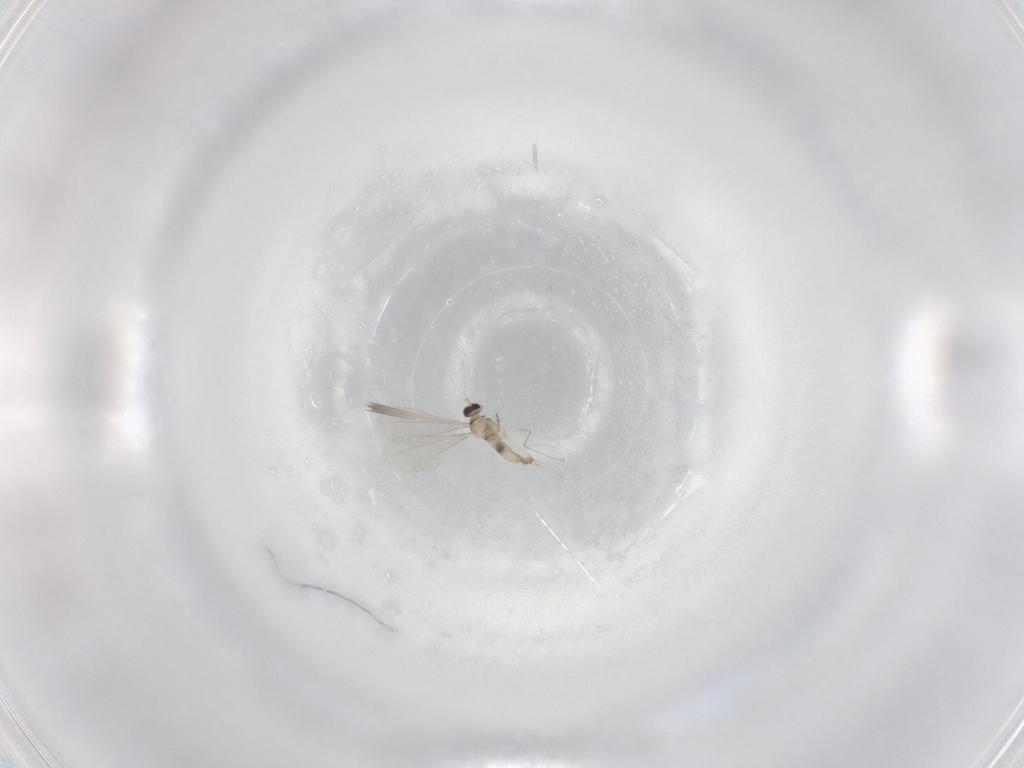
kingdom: Animalia
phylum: Arthropoda
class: Insecta
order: Diptera
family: Cecidomyiidae
